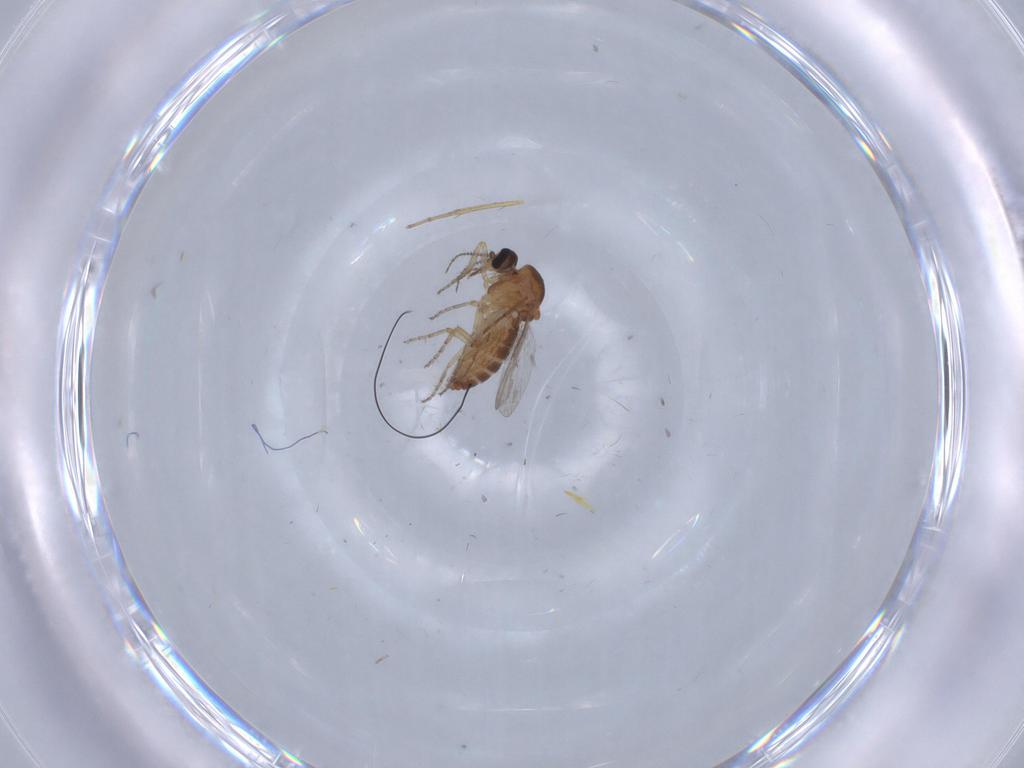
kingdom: Animalia
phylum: Arthropoda
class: Insecta
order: Diptera
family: Ceratopogonidae
